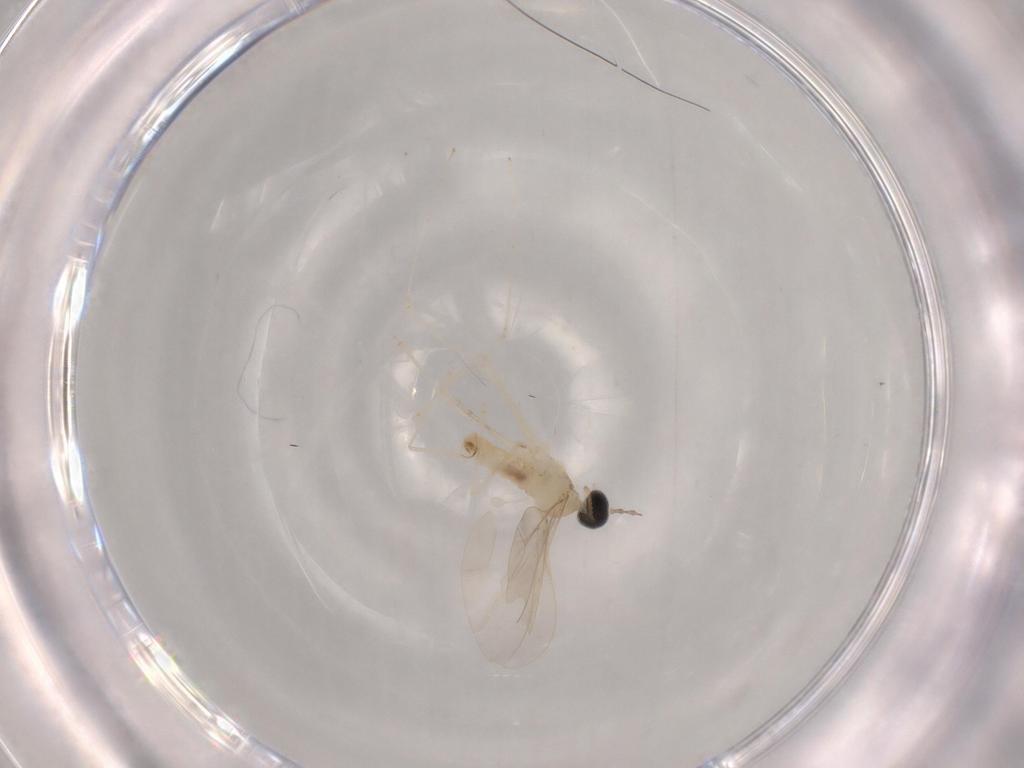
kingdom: Animalia
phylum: Arthropoda
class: Insecta
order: Diptera
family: Cecidomyiidae
